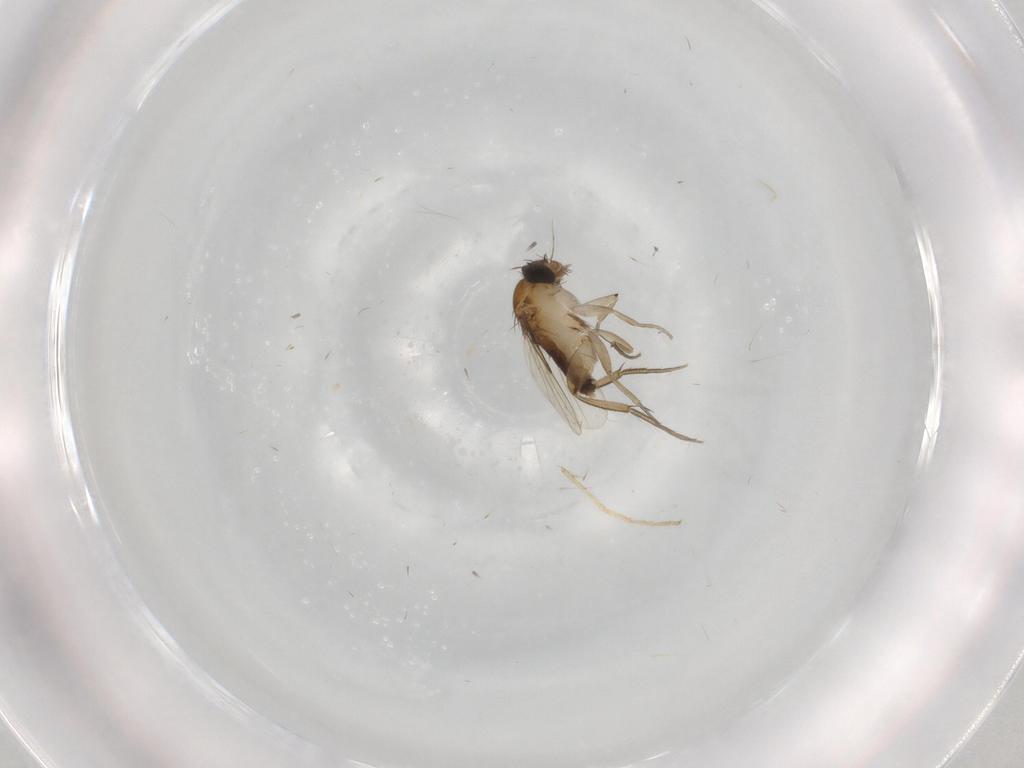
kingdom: Animalia
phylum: Arthropoda
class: Insecta
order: Diptera
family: Phoridae
